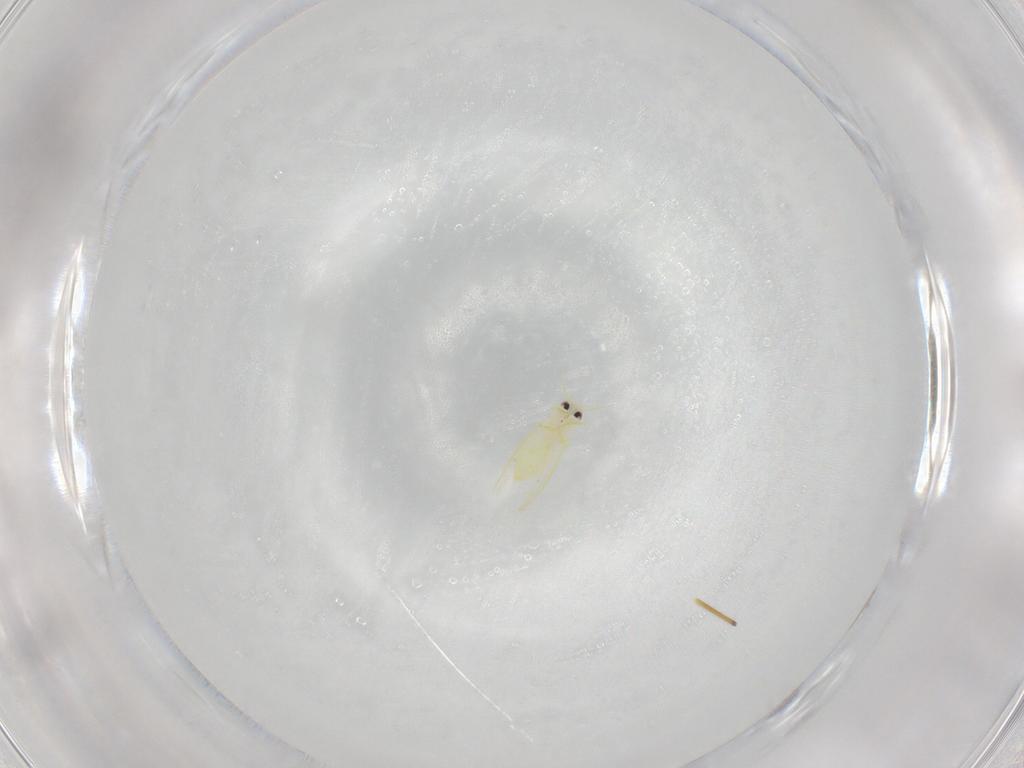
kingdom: Animalia
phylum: Arthropoda
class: Insecta
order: Hemiptera
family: Aleyrodidae
